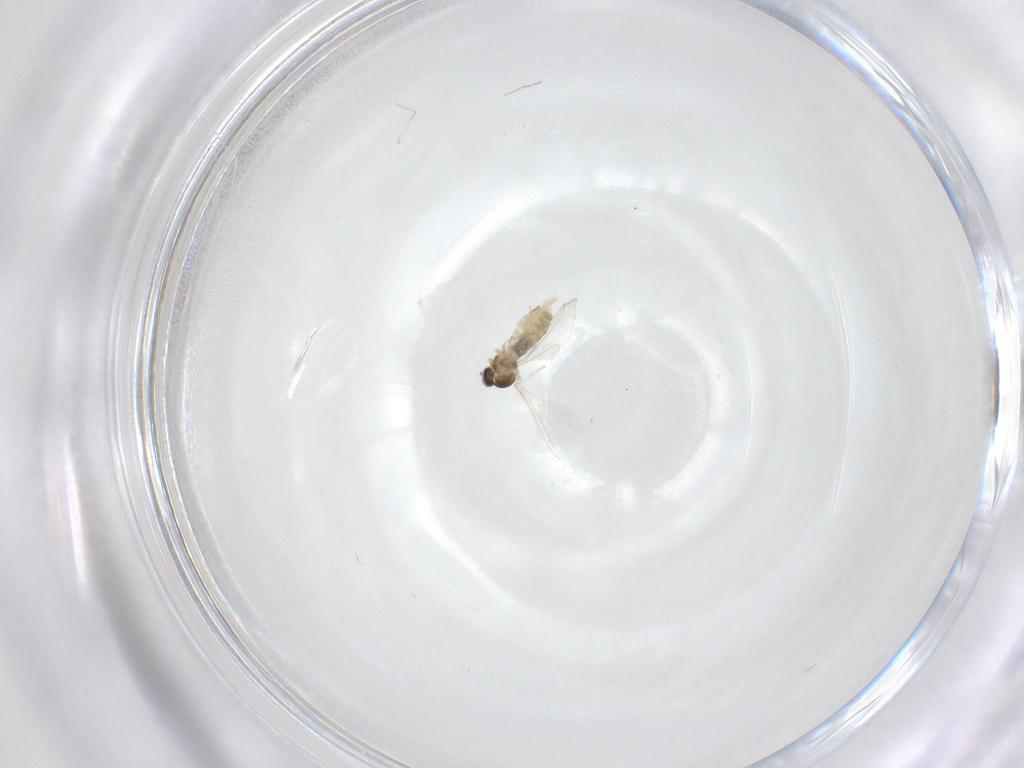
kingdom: Animalia
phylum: Arthropoda
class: Insecta
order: Diptera
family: Cecidomyiidae
